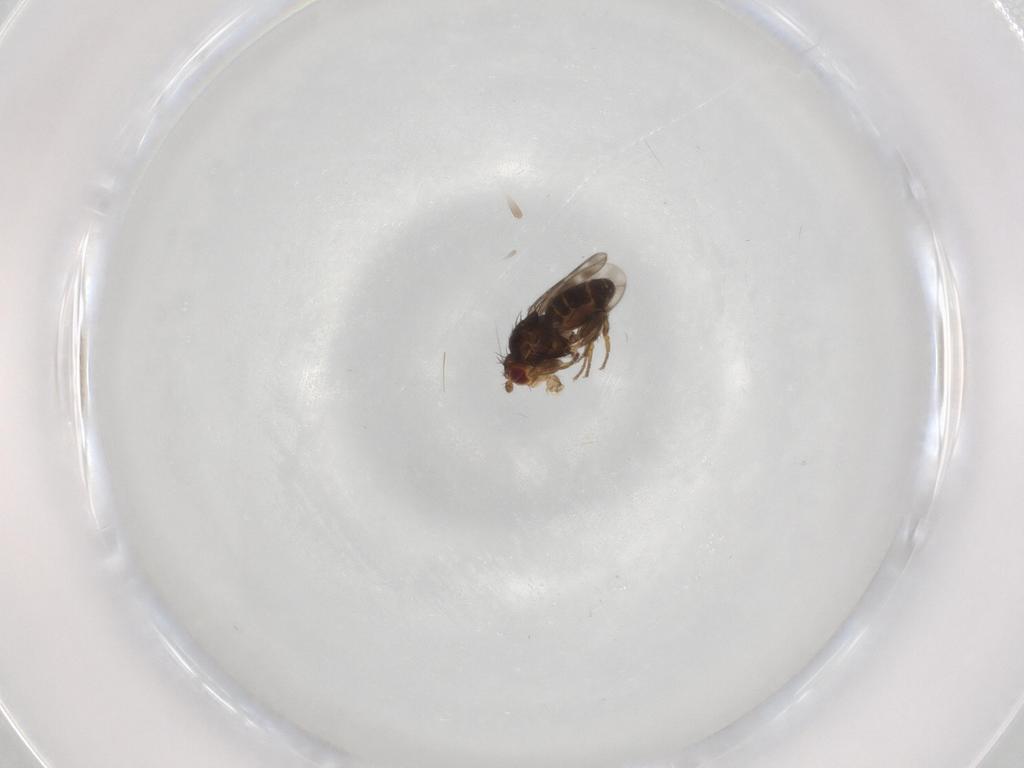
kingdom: Animalia
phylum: Arthropoda
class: Insecta
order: Diptera
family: Sphaeroceridae
